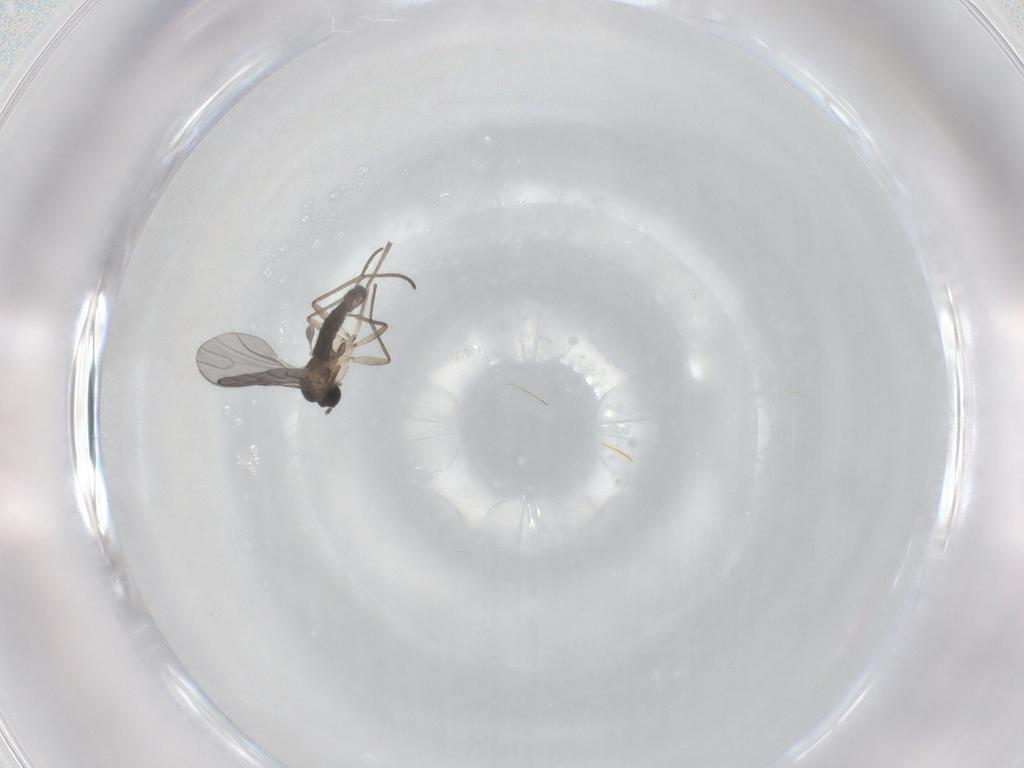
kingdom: Animalia
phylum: Arthropoda
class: Insecta
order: Diptera
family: Sciaridae
